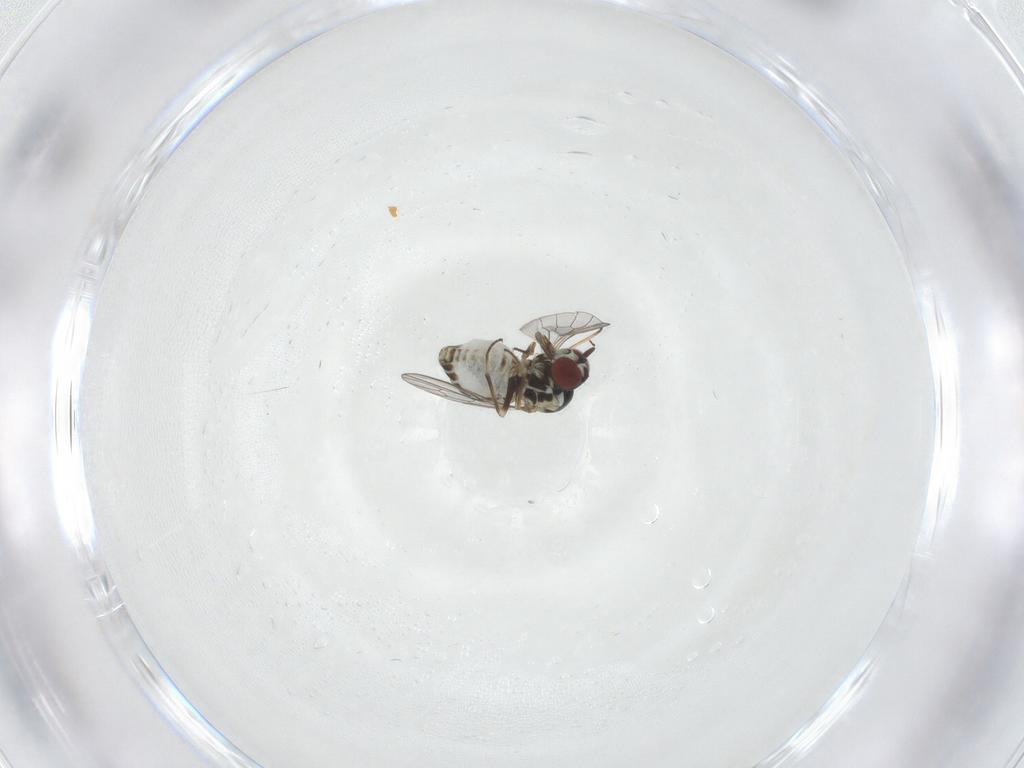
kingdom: Animalia
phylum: Arthropoda
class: Insecta
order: Diptera
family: Mythicomyiidae
